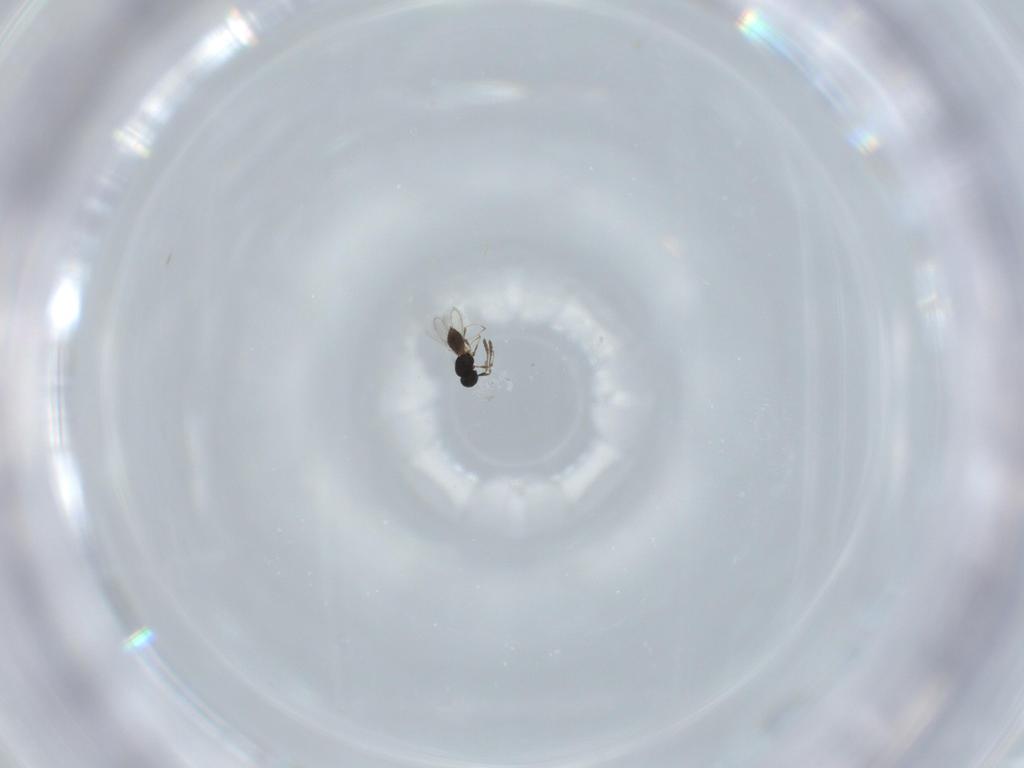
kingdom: Animalia
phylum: Arthropoda
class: Insecta
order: Hymenoptera
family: Scelionidae
